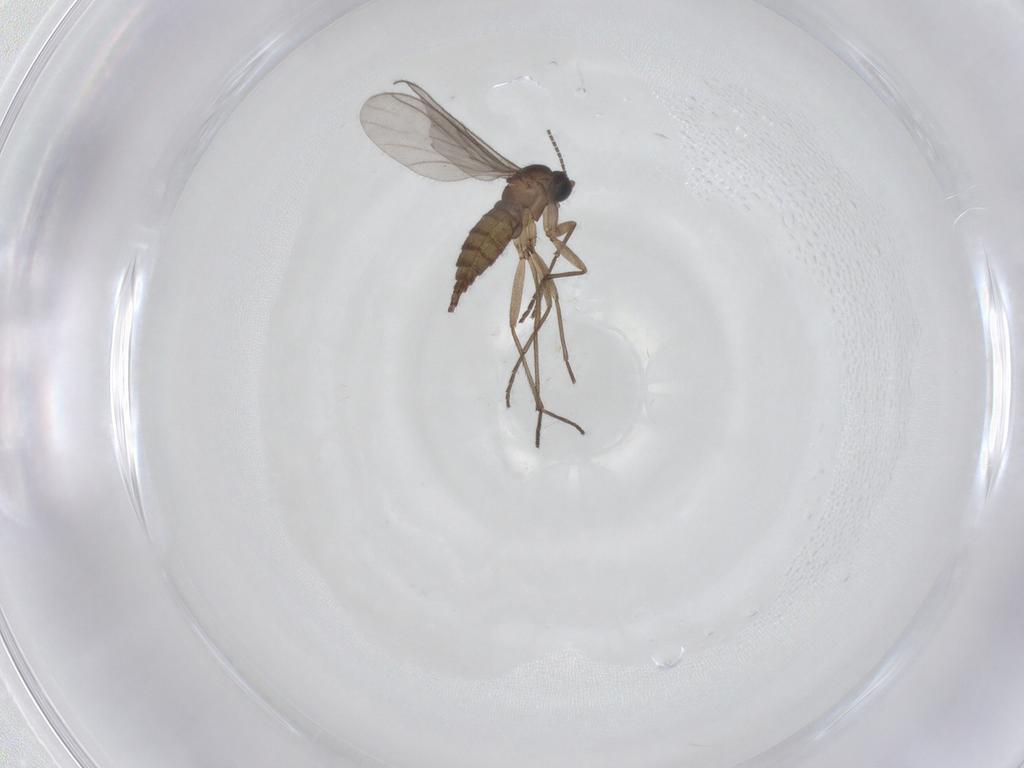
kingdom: Animalia
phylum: Arthropoda
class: Insecta
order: Diptera
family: Sciaridae
